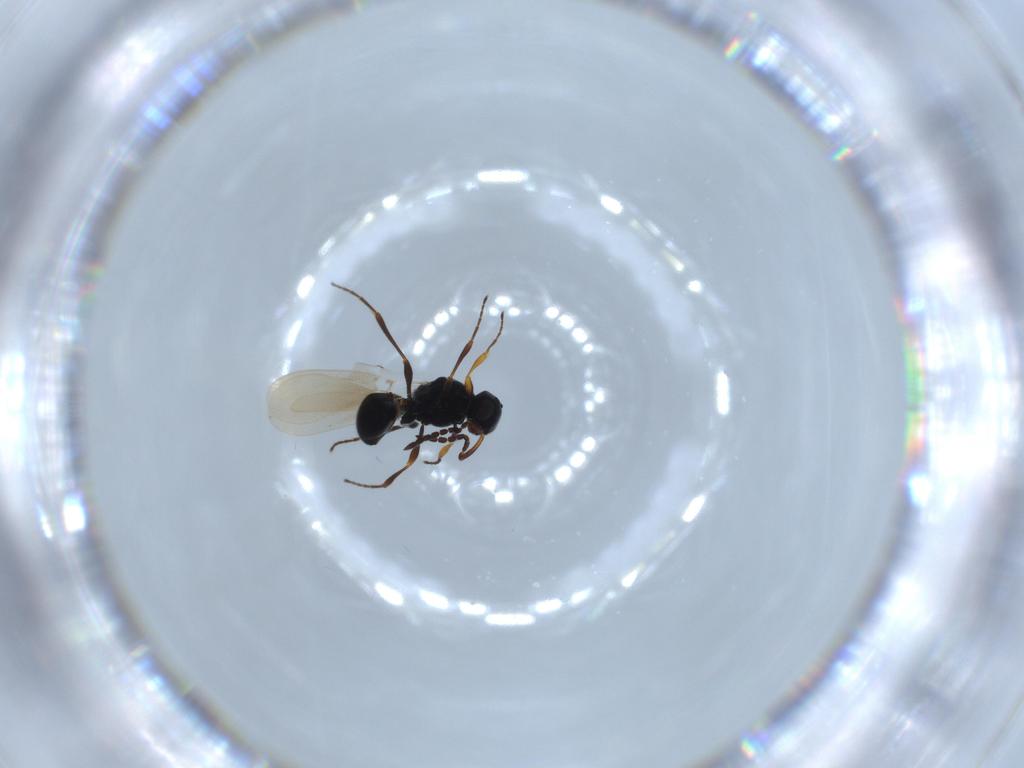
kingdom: Animalia
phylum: Arthropoda
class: Insecta
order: Hymenoptera
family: Platygastridae
